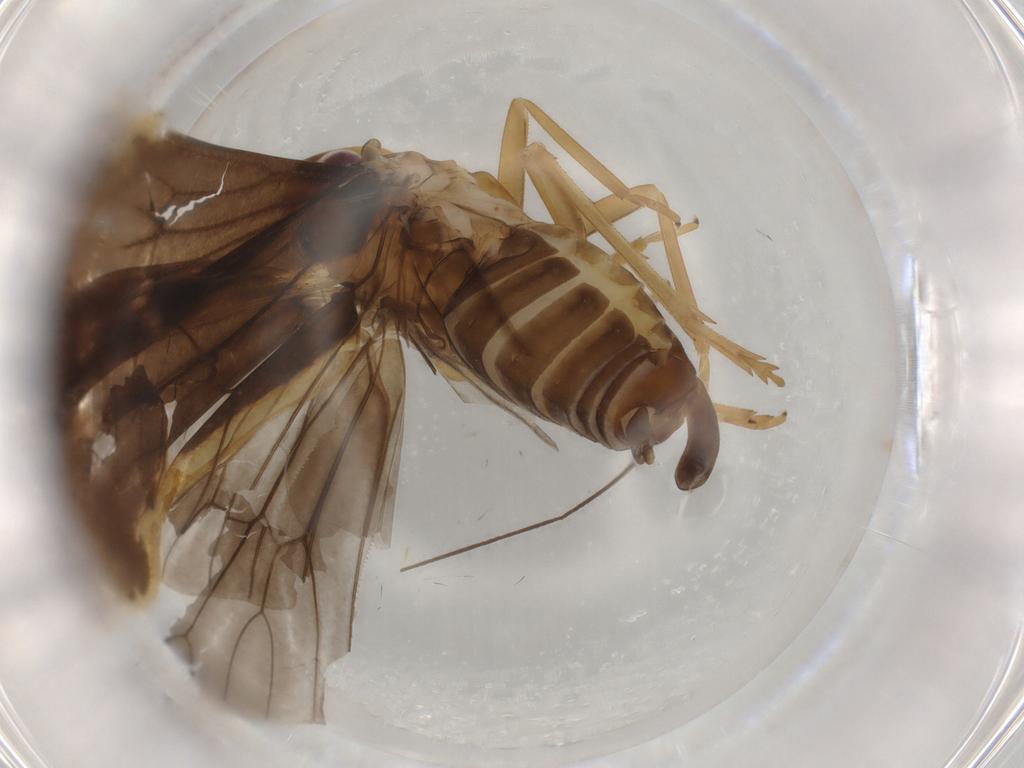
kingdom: Animalia
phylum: Arthropoda
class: Insecta
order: Hemiptera
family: Cixiidae
